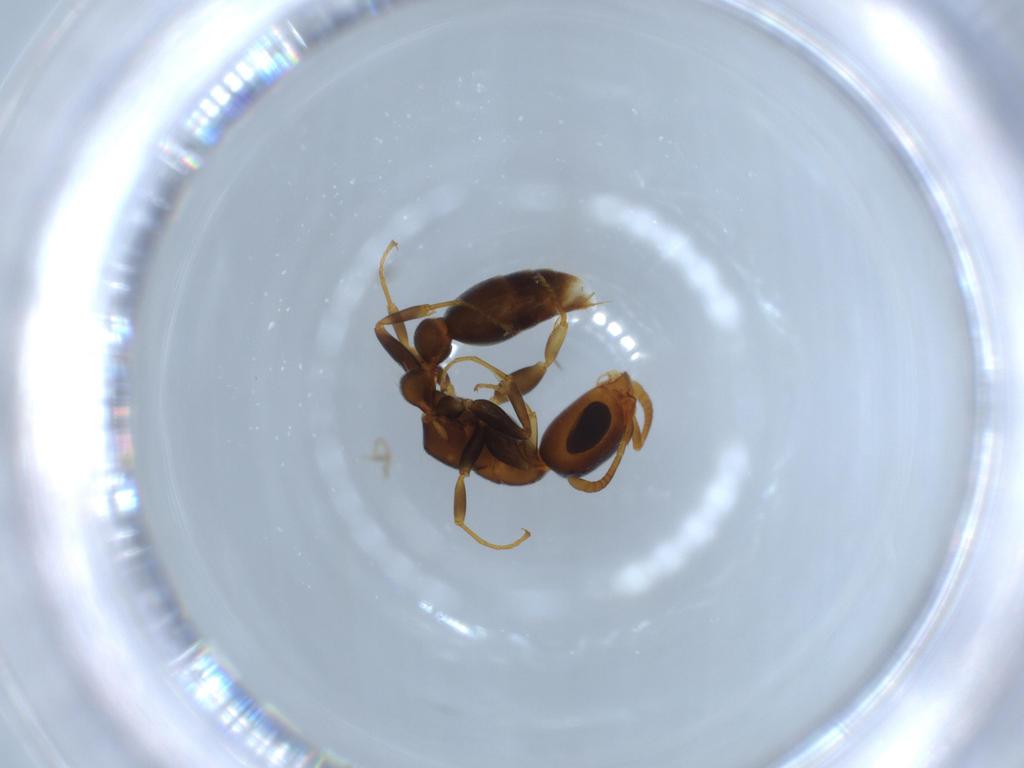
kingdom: Animalia
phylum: Arthropoda
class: Insecta
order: Hymenoptera
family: Formicidae
